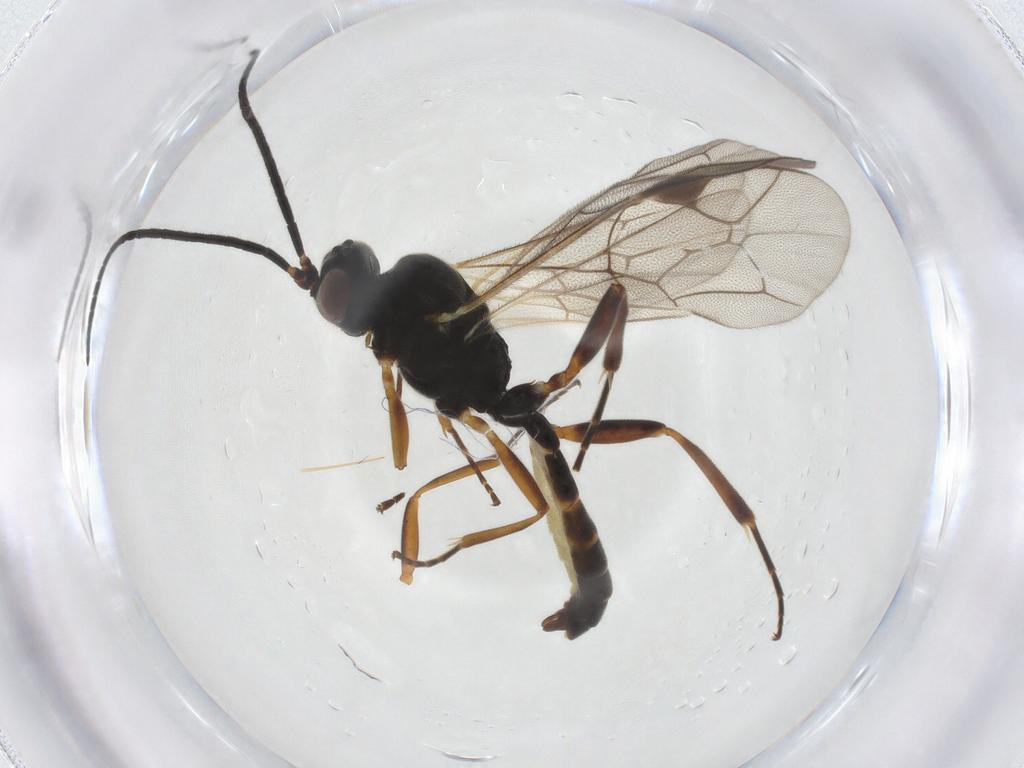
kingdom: Animalia
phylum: Arthropoda
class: Insecta
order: Hymenoptera
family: Ichneumonidae
